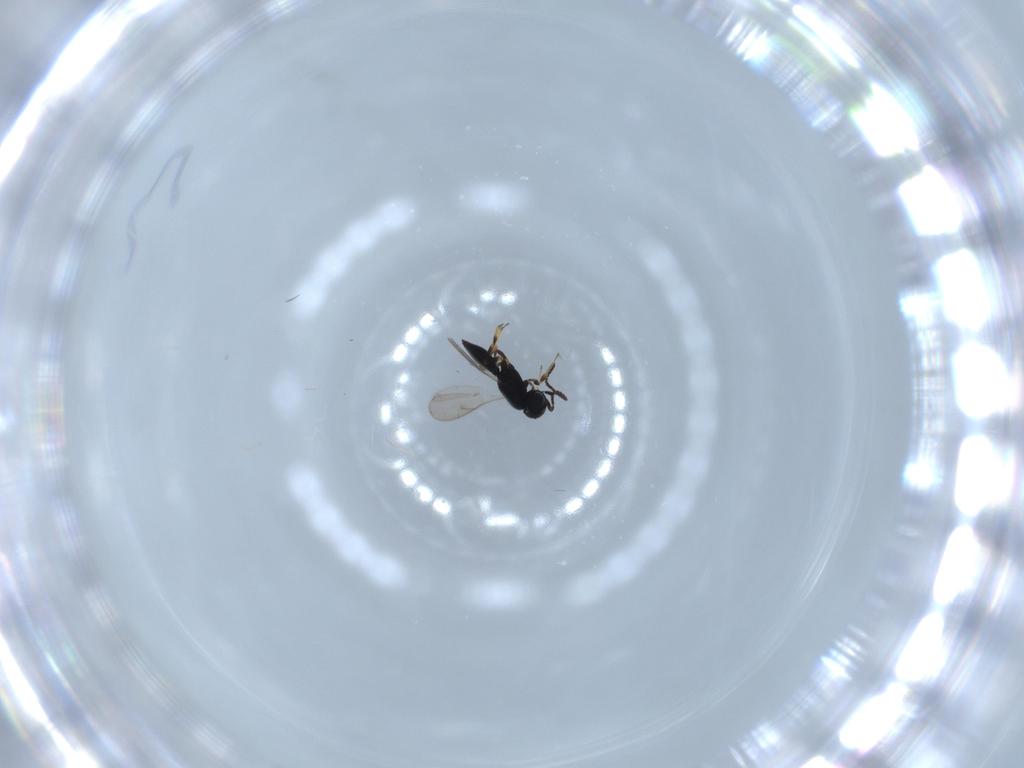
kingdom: Animalia
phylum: Arthropoda
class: Insecta
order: Hymenoptera
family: Scelionidae
